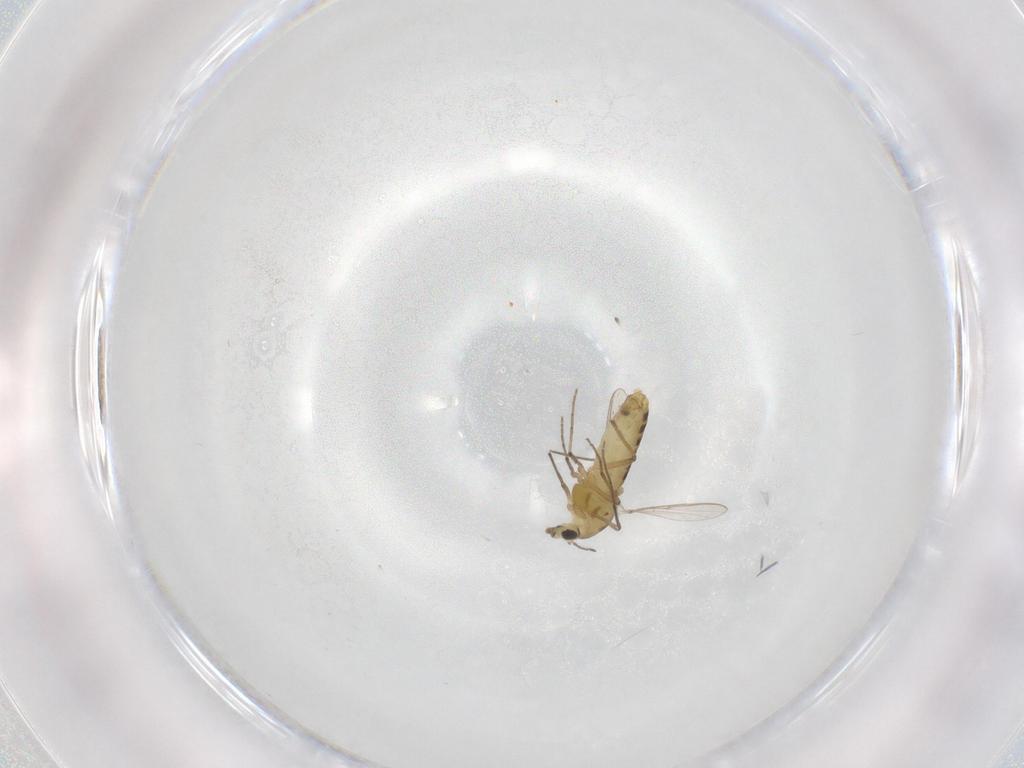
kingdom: Animalia
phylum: Arthropoda
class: Insecta
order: Diptera
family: Chironomidae
